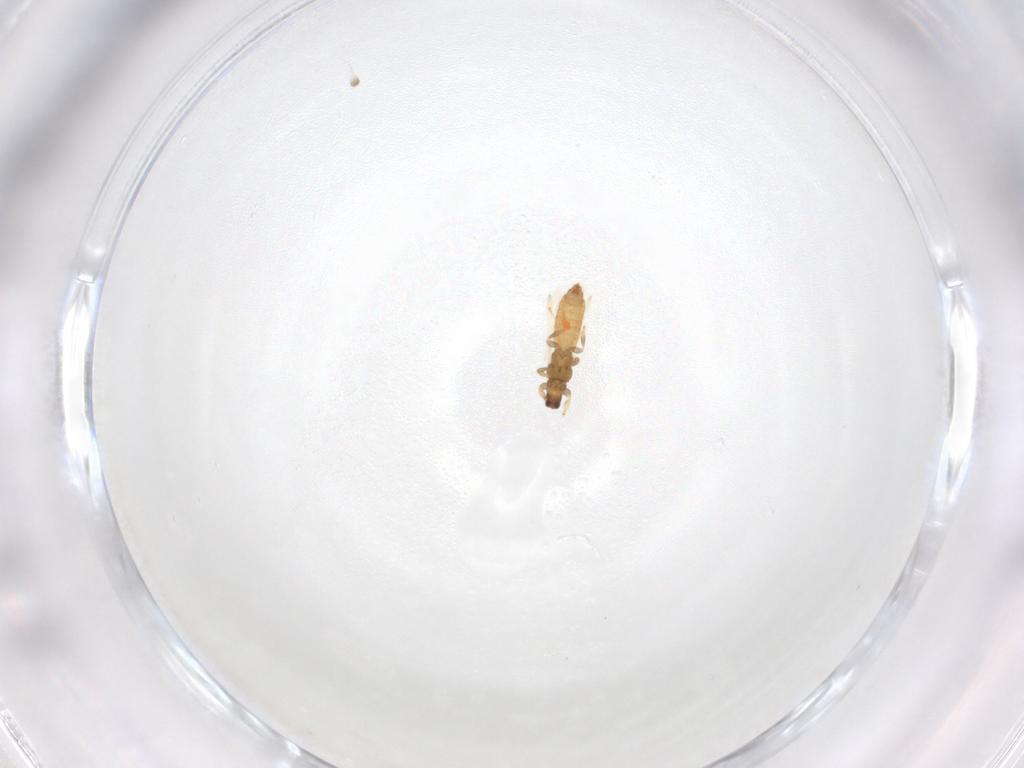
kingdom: Animalia
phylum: Arthropoda
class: Insecta
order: Thysanoptera
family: Thripidae
